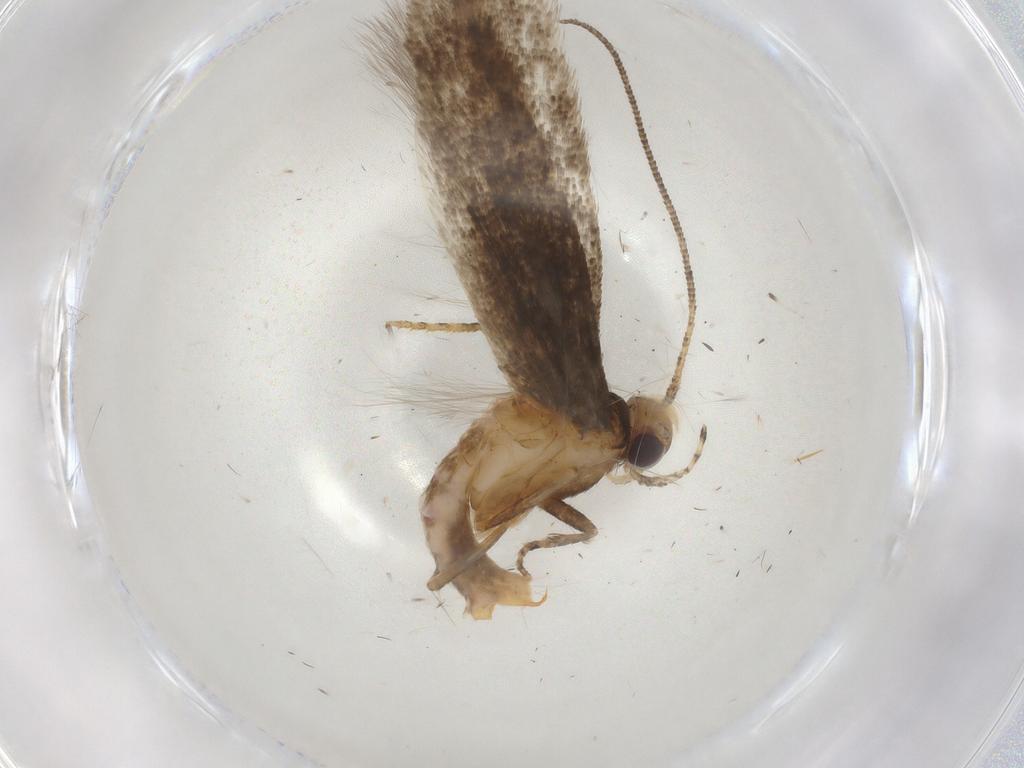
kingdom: Animalia
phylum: Arthropoda
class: Insecta
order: Lepidoptera
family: Gelechiidae
